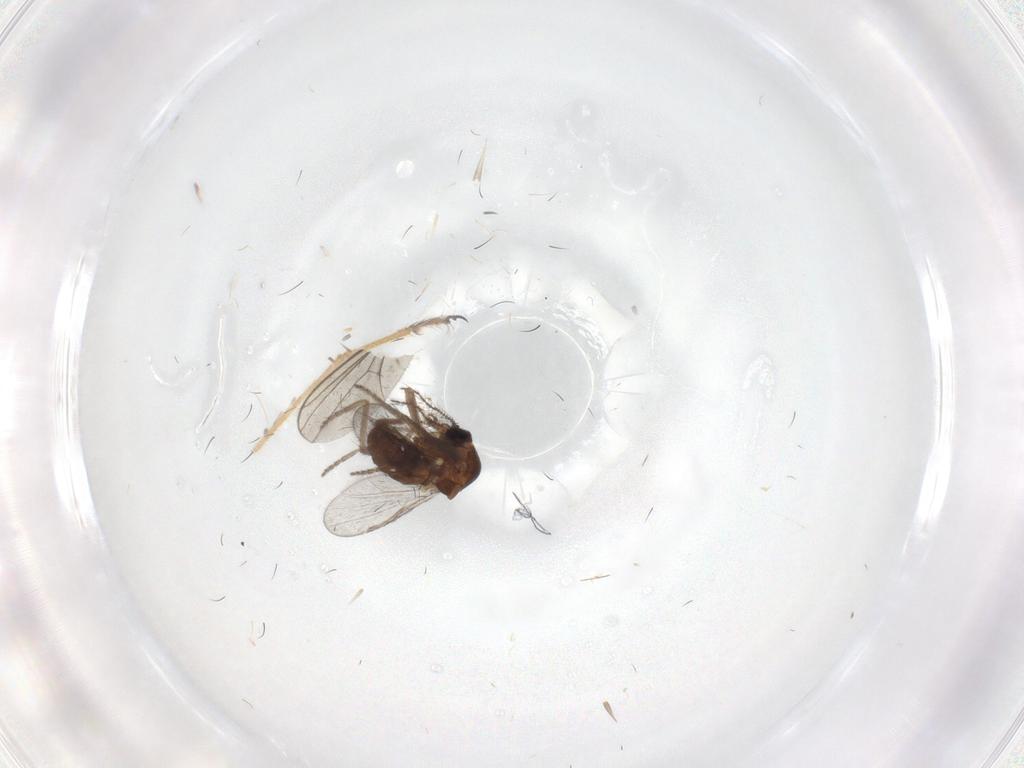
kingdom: Animalia
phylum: Arthropoda
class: Insecta
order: Diptera
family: Ceratopogonidae
